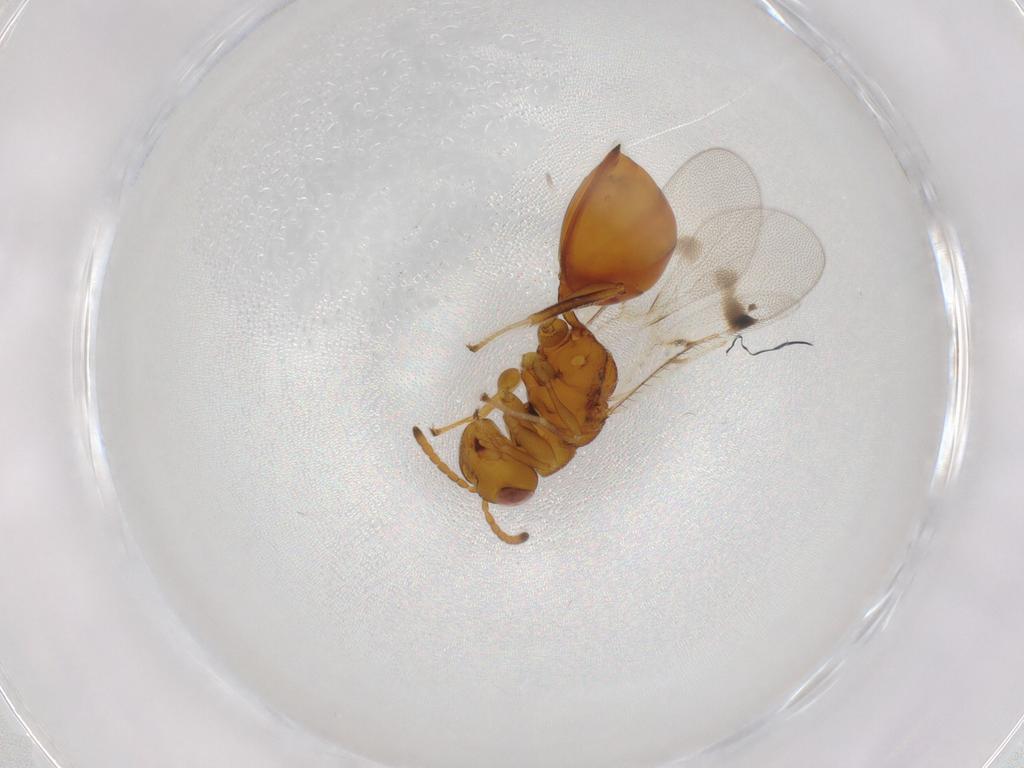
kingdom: Animalia
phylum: Arthropoda
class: Insecta
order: Hymenoptera
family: Eurytomidae
